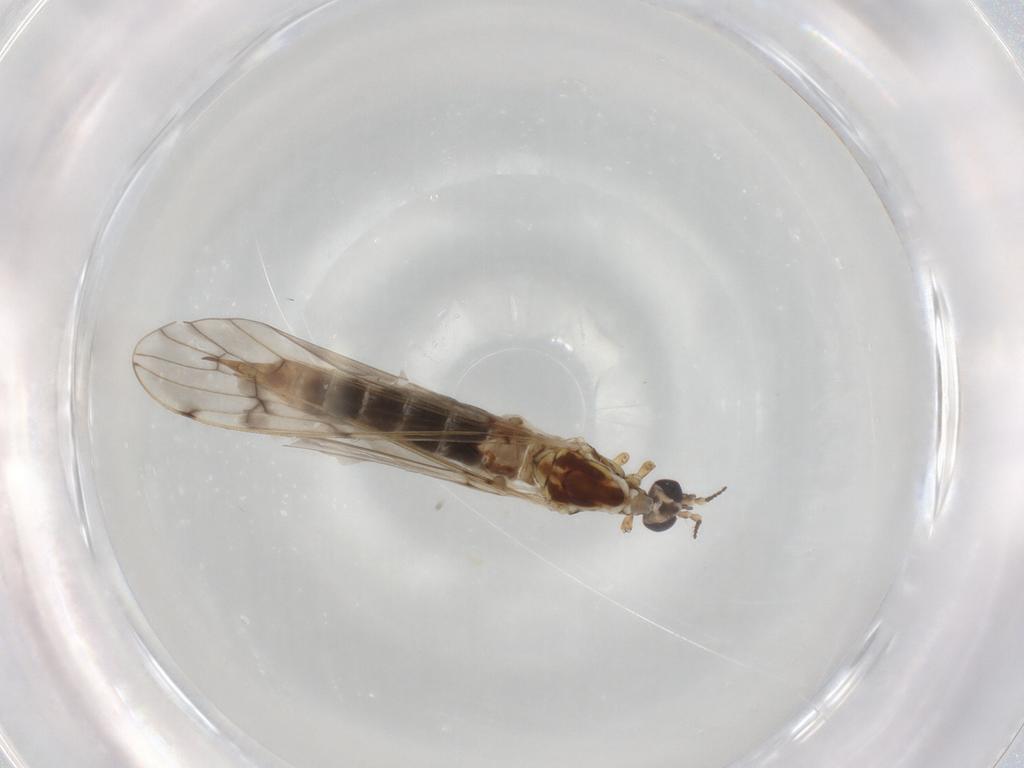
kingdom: Animalia
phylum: Arthropoda
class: Insecta
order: Diptera
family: Limoniidae
